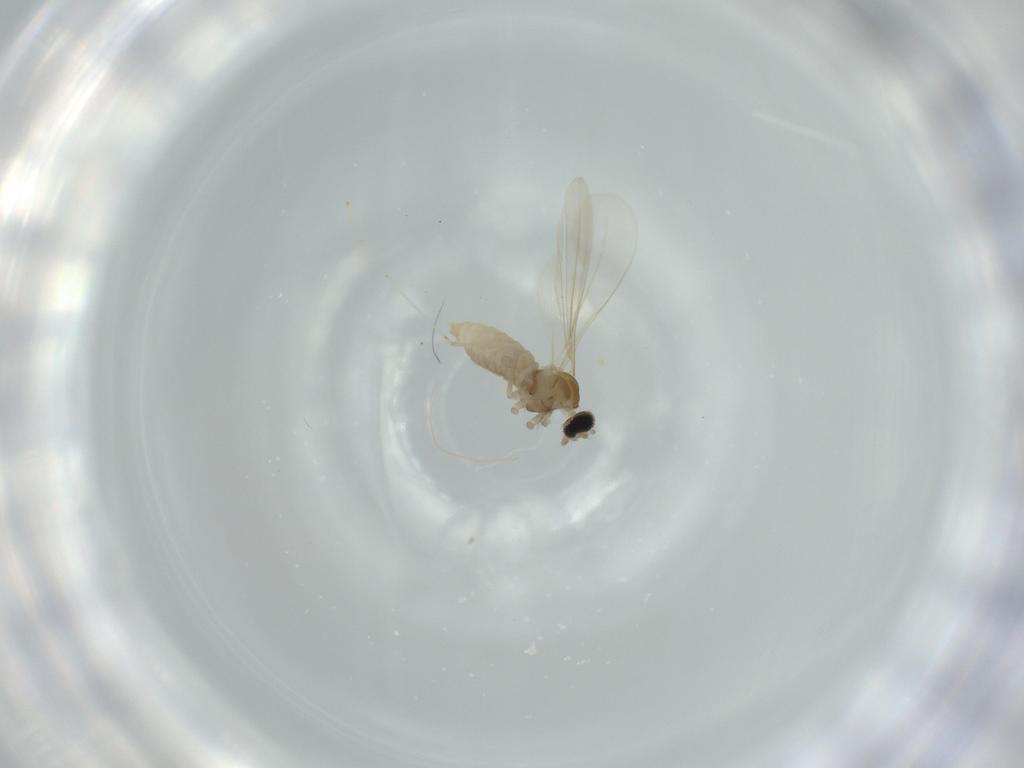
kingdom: Animalia
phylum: Arthropoda
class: Insecta
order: Diptera
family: Cecidomyiidae
